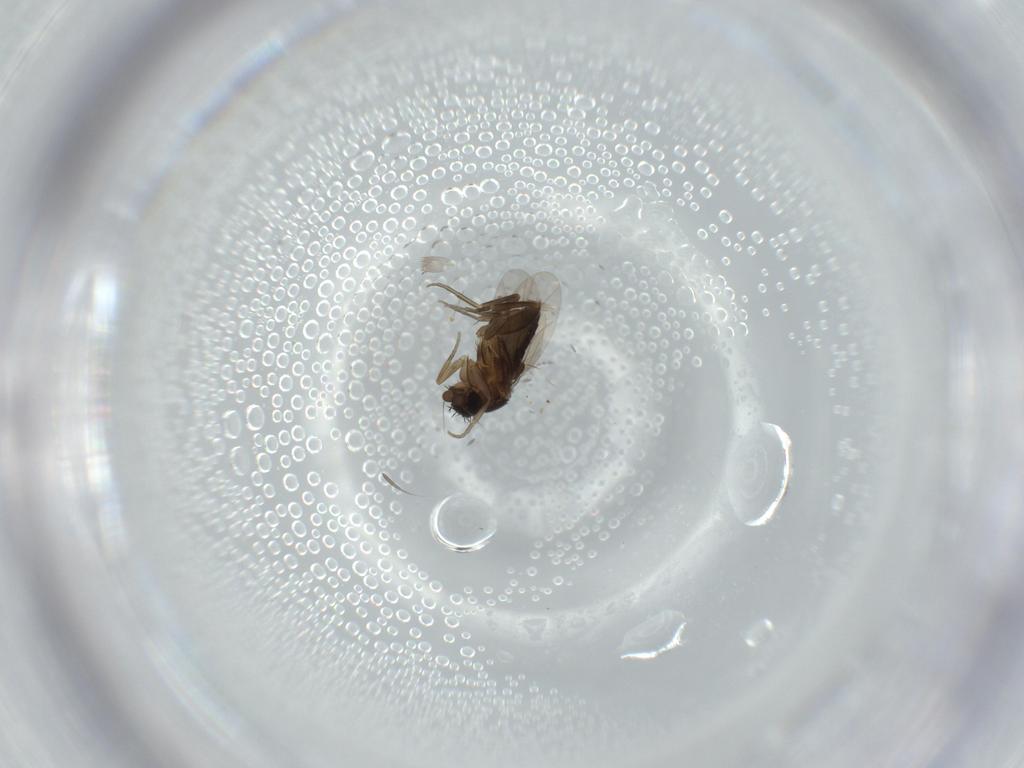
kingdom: Animalia
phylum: Arthropoda
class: Insecta
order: Diptera
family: Phoridae
